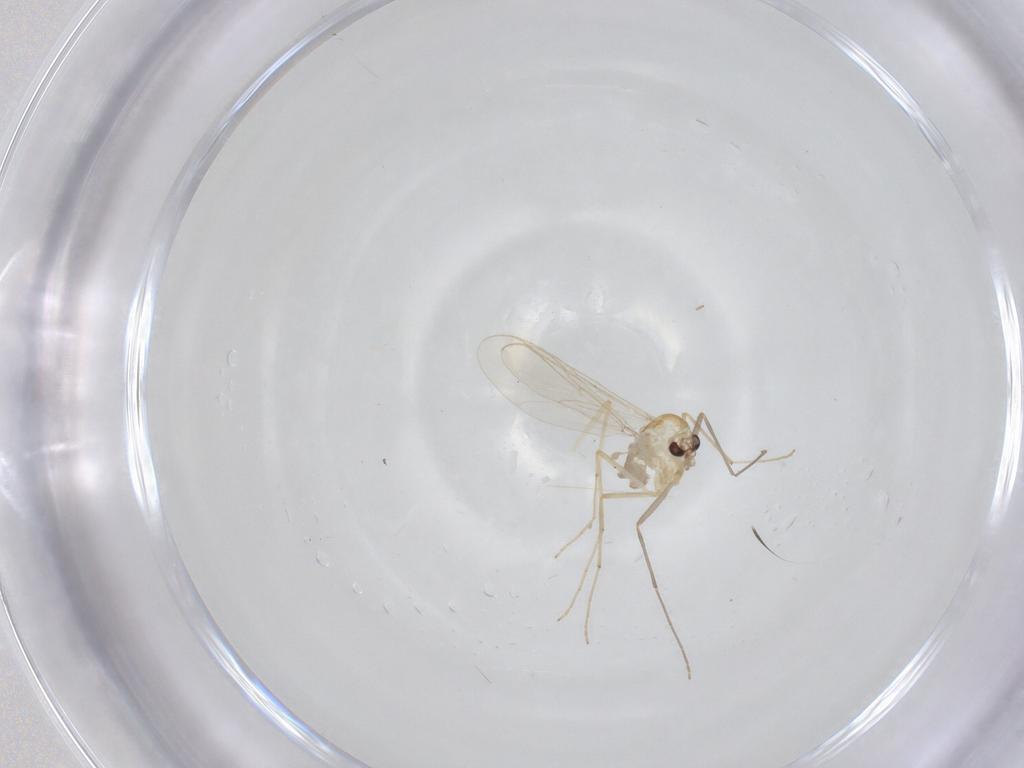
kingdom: Animalia
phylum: Arthropoda
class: Insecta
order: Diptera
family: Chironomidae
